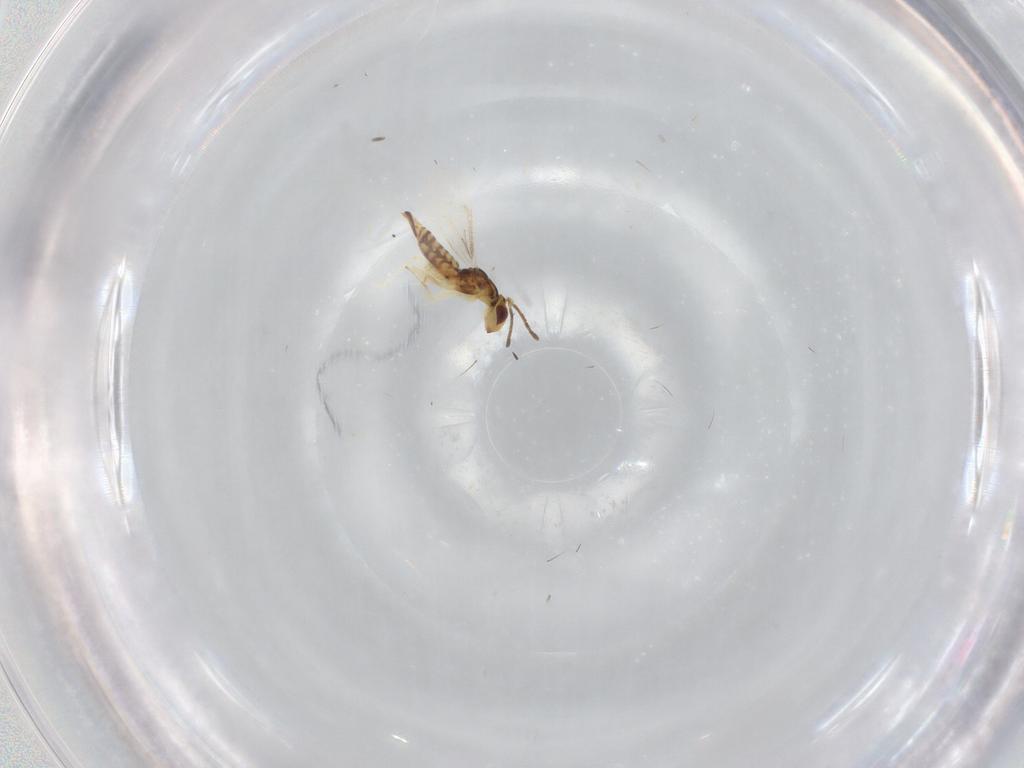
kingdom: Animalia
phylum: Arthropoda
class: Insecta
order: Hymenoptera
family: Eulophidae
